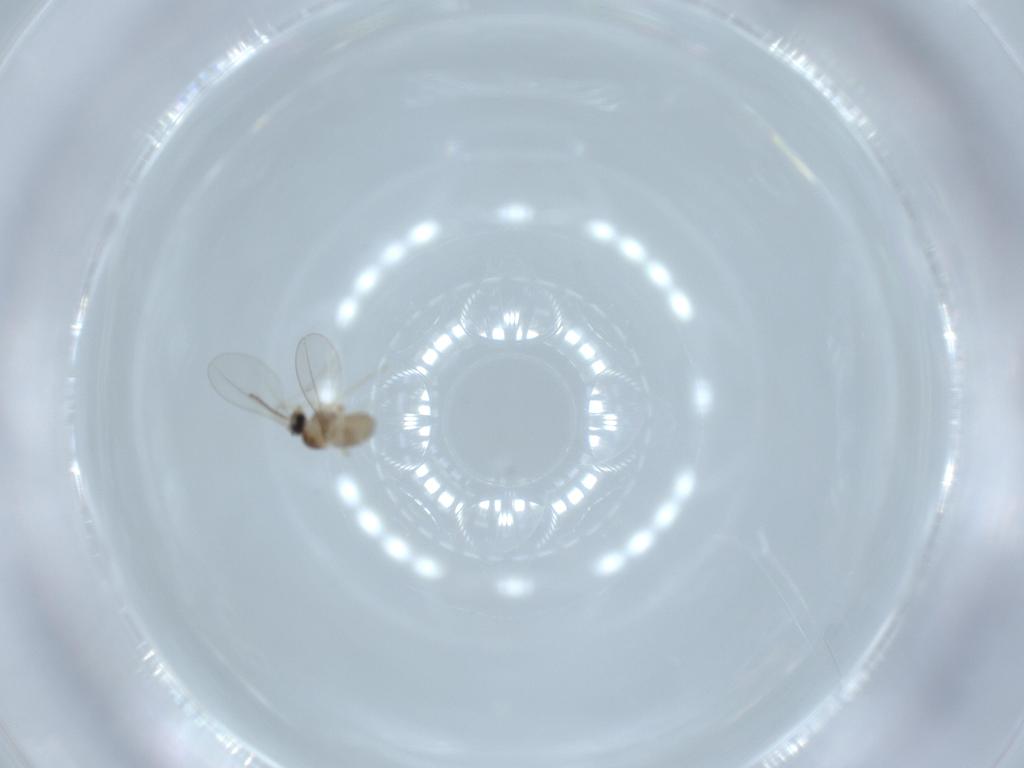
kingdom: Animalia
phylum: Arthropoda
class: Insecta
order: Diptera
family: Cecidomyiidae
